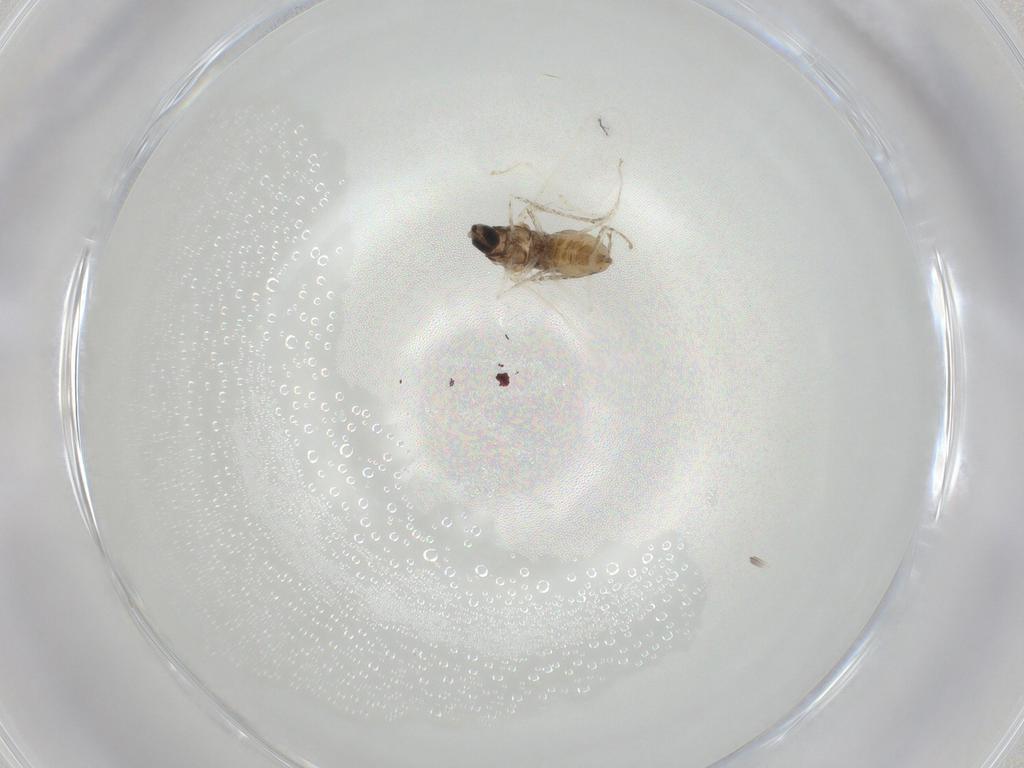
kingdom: Animalia
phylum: Arthropoda
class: Insecta
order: Diptera
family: Cecidomyiidae
